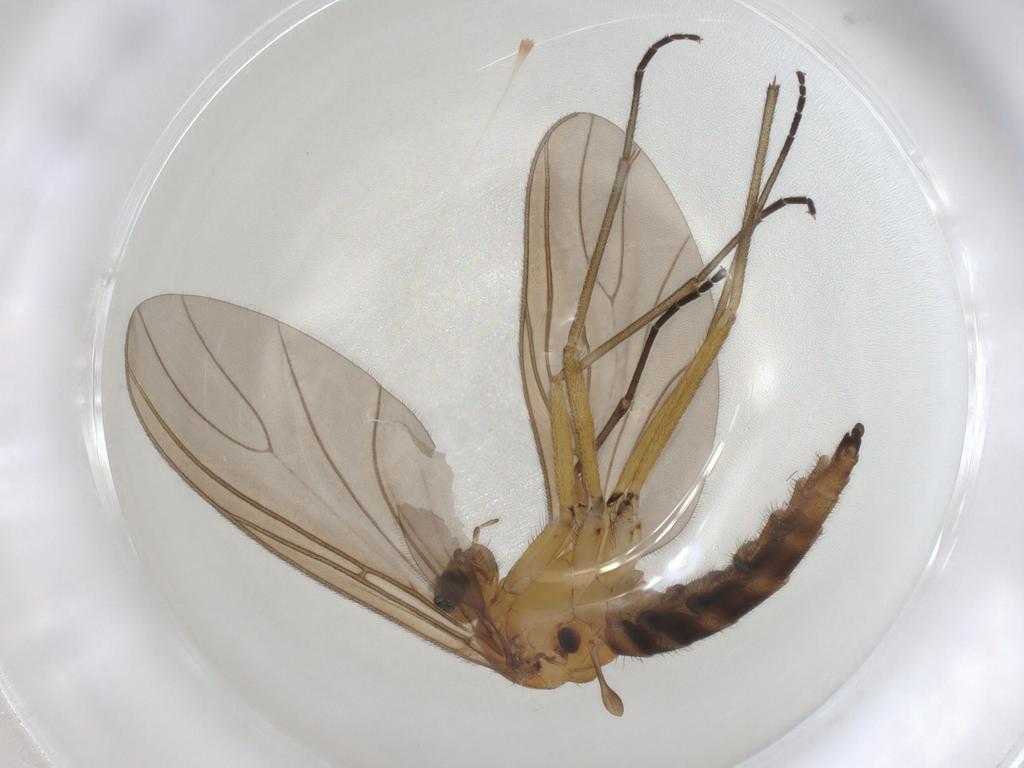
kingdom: Animalia
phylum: Arthropoda
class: Insecta
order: Diptera
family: Sciaridae
